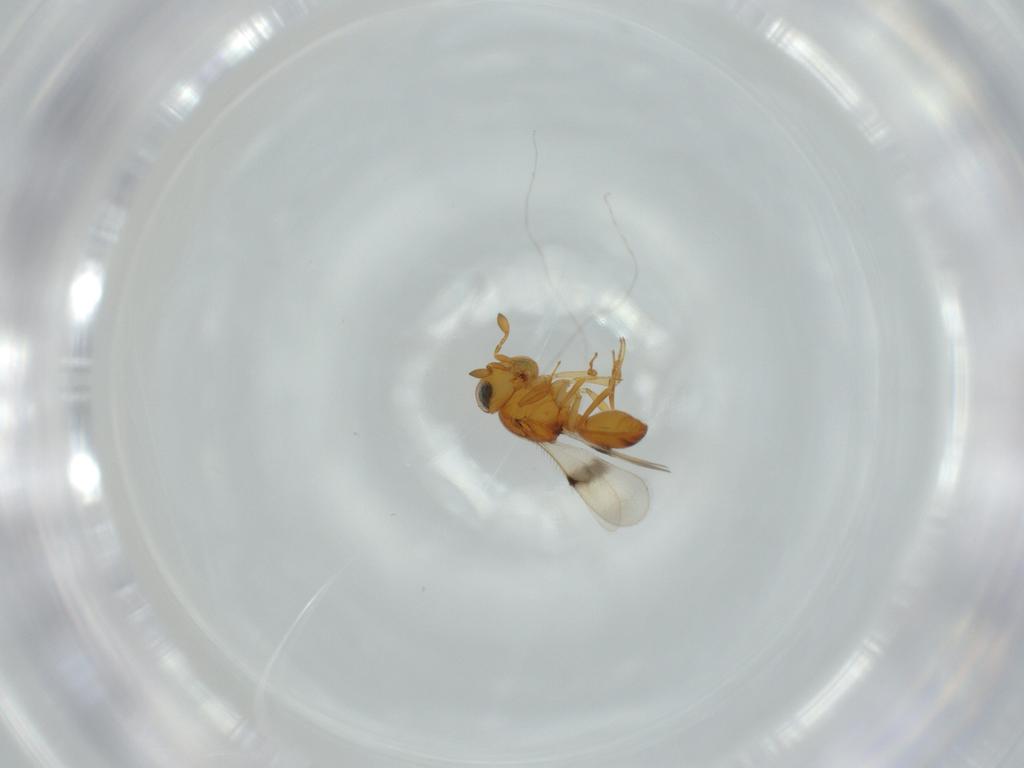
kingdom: Animalia
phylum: Arthropoda
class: Insecta
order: Hymenoptera
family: Scelionidae
